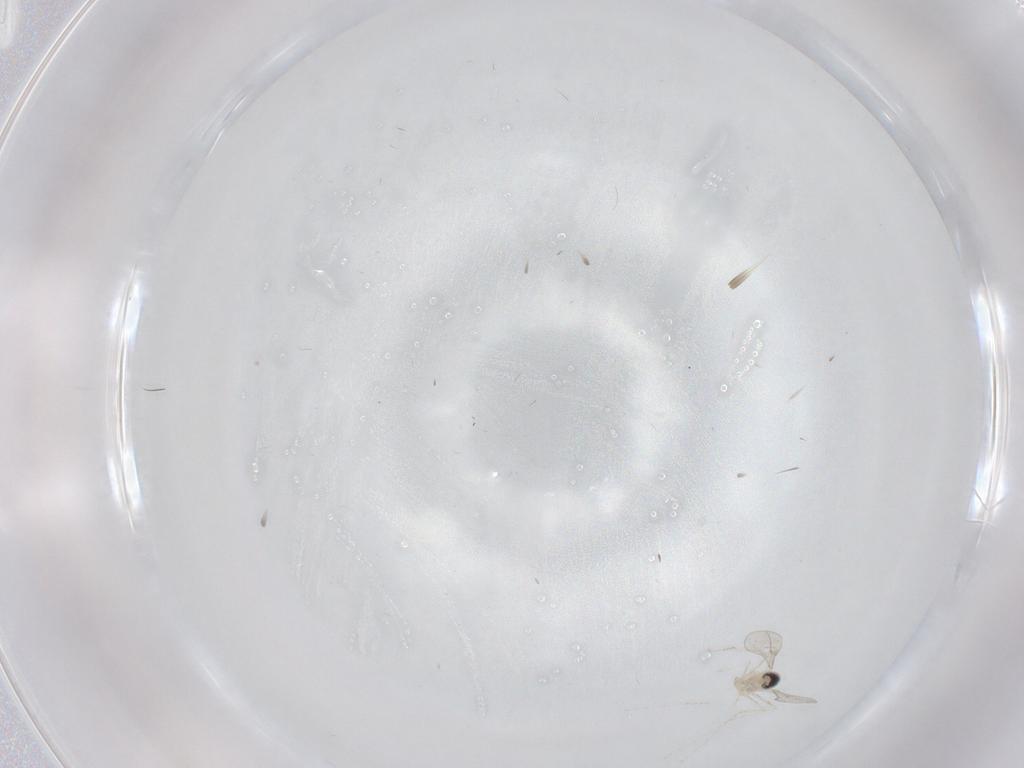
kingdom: Animalia
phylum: Arthropoda
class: Insecta
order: Diptera
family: Cecidomyiidae
